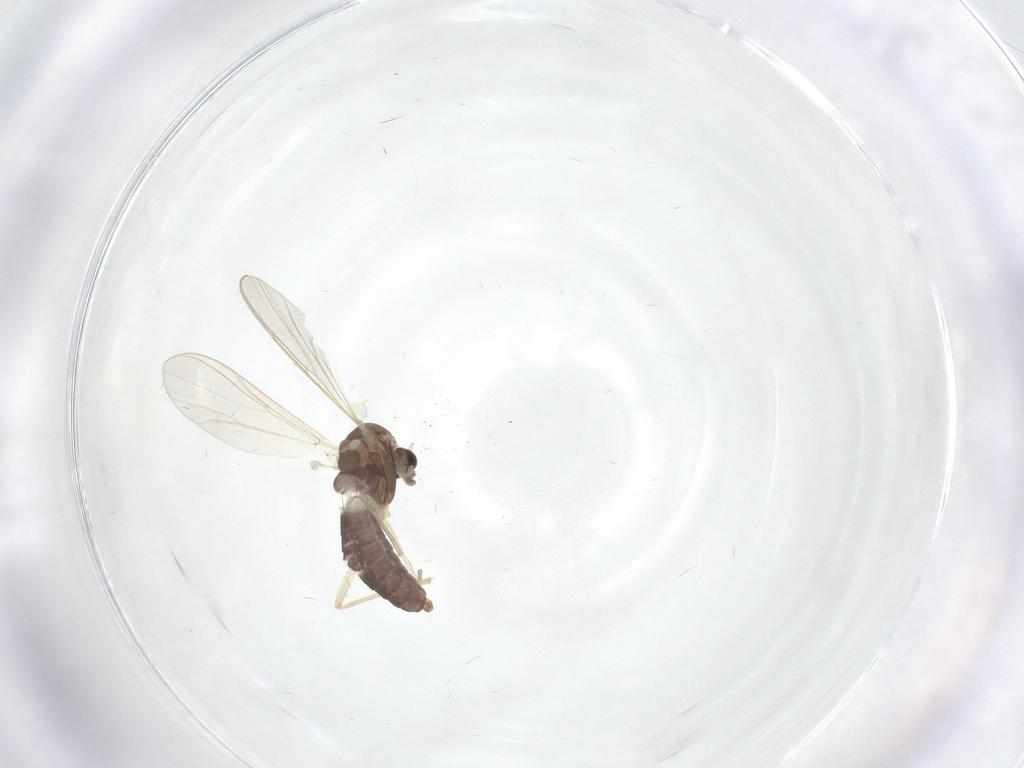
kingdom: Animalia
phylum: Arthropoda
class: Insecta
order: Diptera
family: Chironomidae
